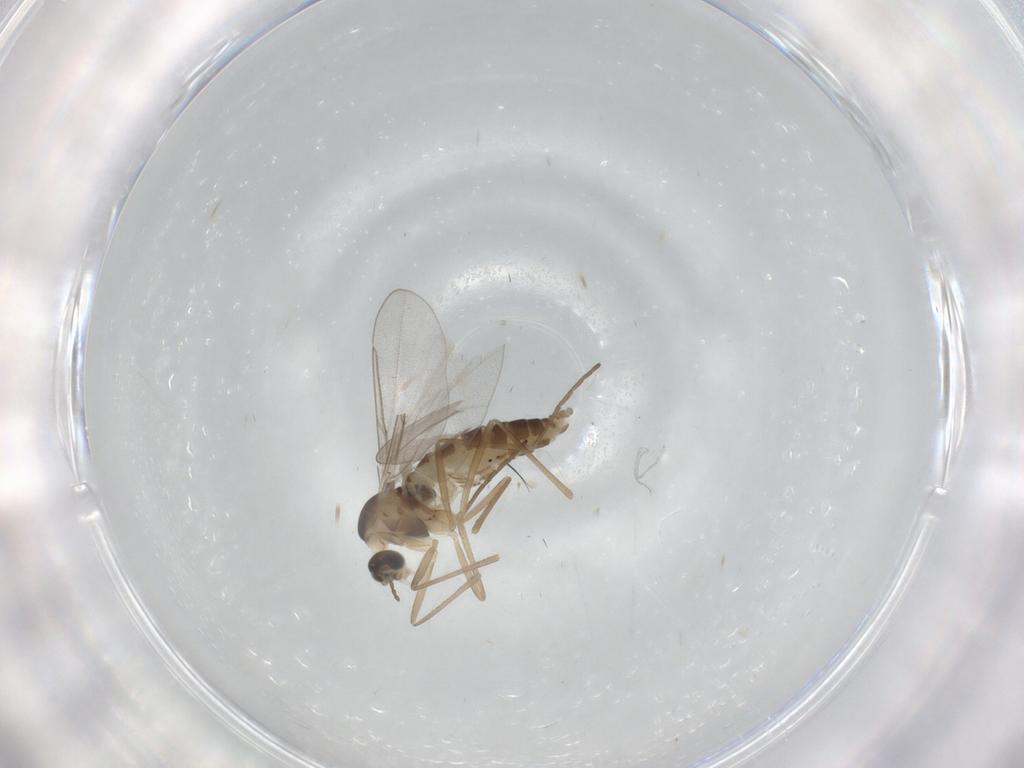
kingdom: Animalia
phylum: Arthropoda
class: Insecta
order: Diptera
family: Cecidomyiidae
